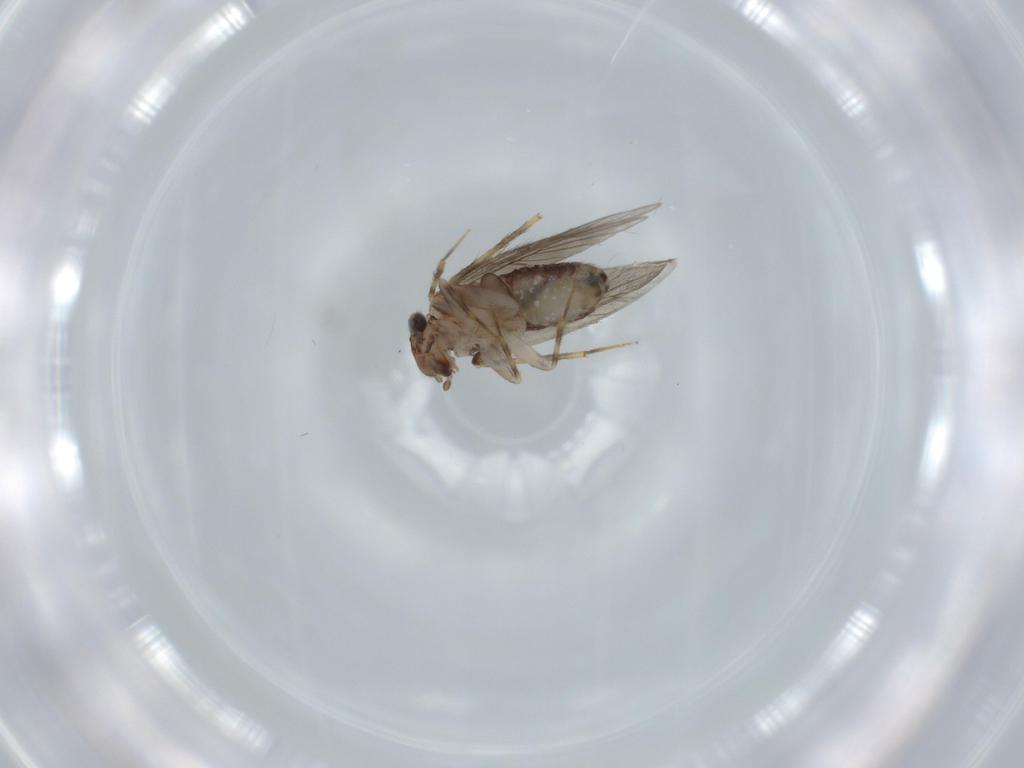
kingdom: Animalia
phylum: Arthropoda
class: Insecta
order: Psocodea
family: Lepidopsocidae
